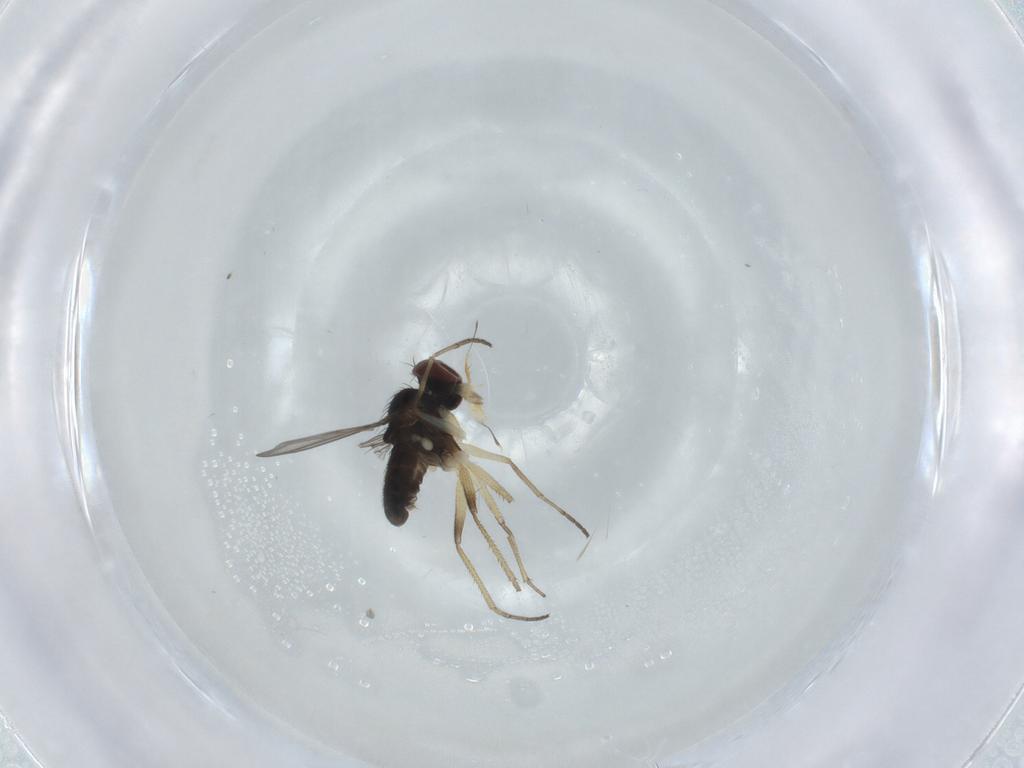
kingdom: Animalia
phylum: Arthropoda
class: Insecta
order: Diptera
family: Dolichopodidae
